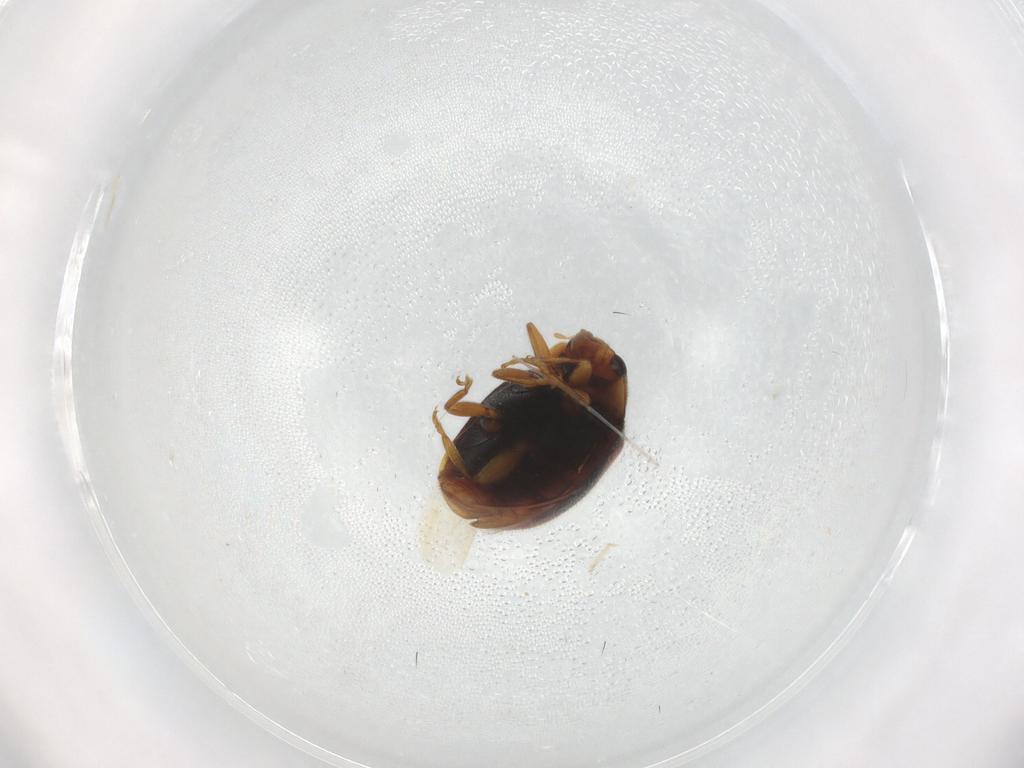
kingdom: Animalia
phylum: Arthropoda
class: Insecta
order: Coleoptera
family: Coccinellidae
